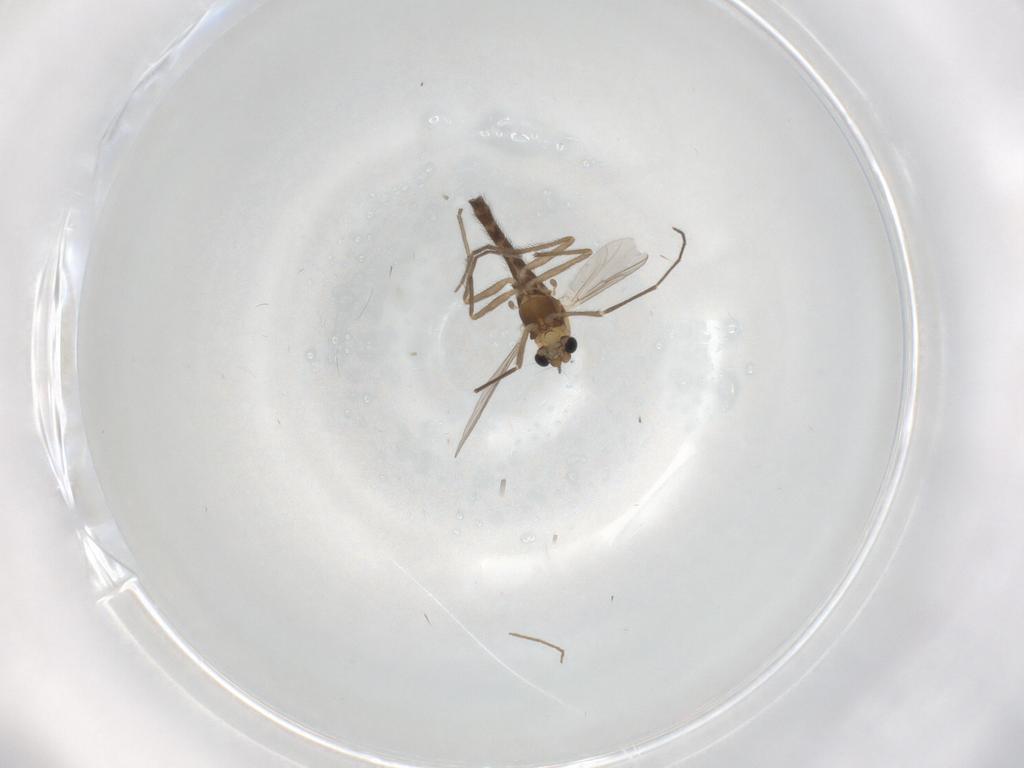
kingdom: Animalia
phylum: Arthropoda
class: Insecta
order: Diptera
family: Chironomidae
